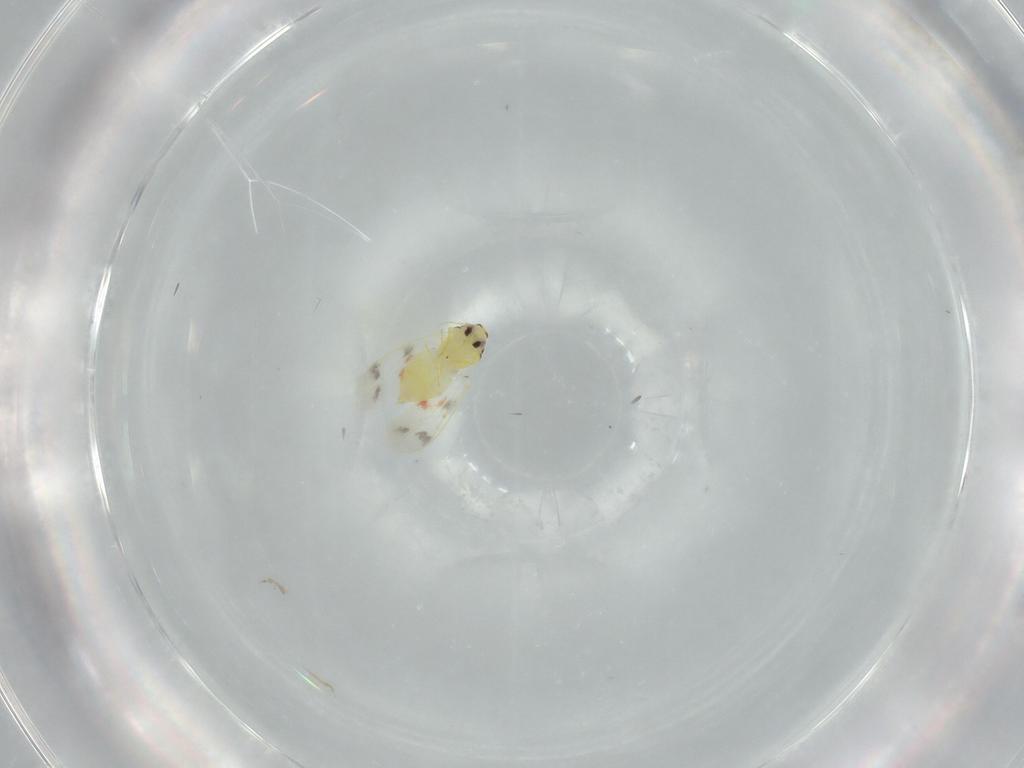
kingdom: Animalia
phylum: Arthropoda
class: Insecta
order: Hemiptera
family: Aleyrodidae
